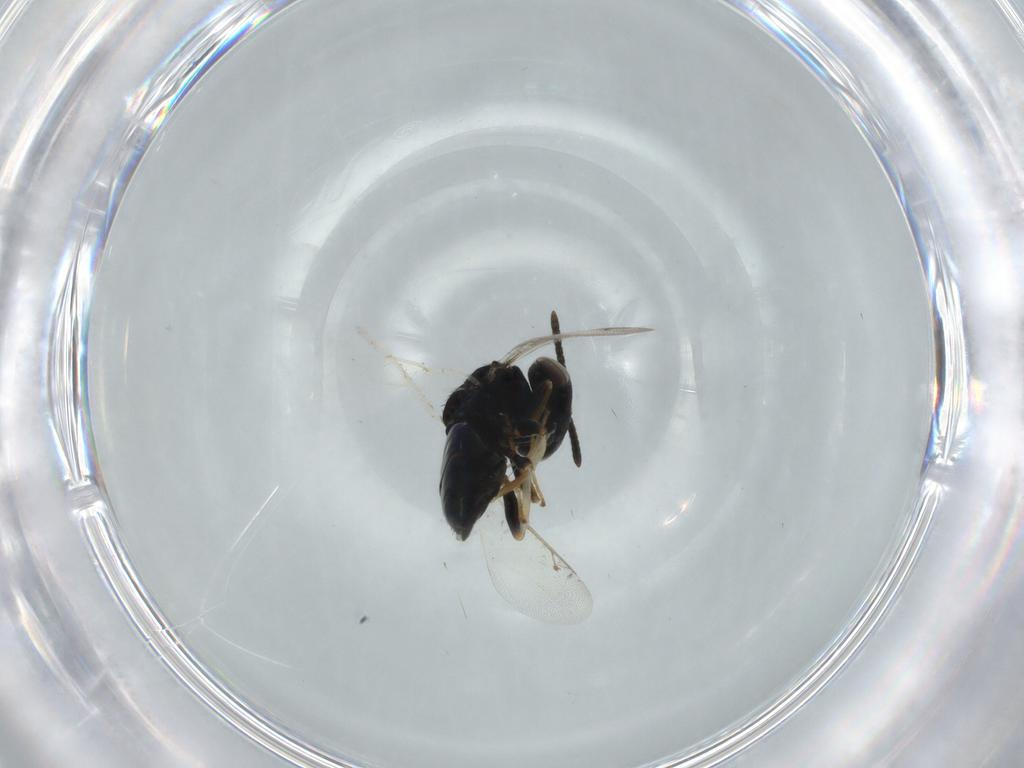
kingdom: Animalia
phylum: Arthropoda
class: Insecta
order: Hymenoptera
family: Pteromalidae
